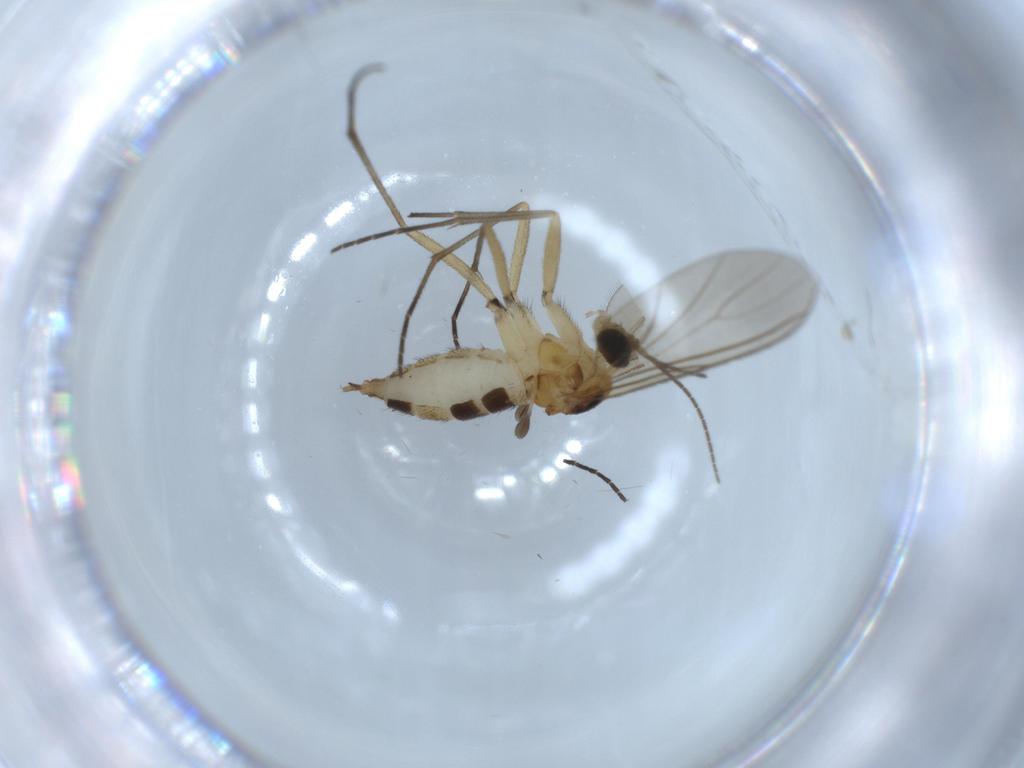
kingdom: Animalia
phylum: Arthropoda
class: Insecta
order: Diptera
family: Sciaridae
